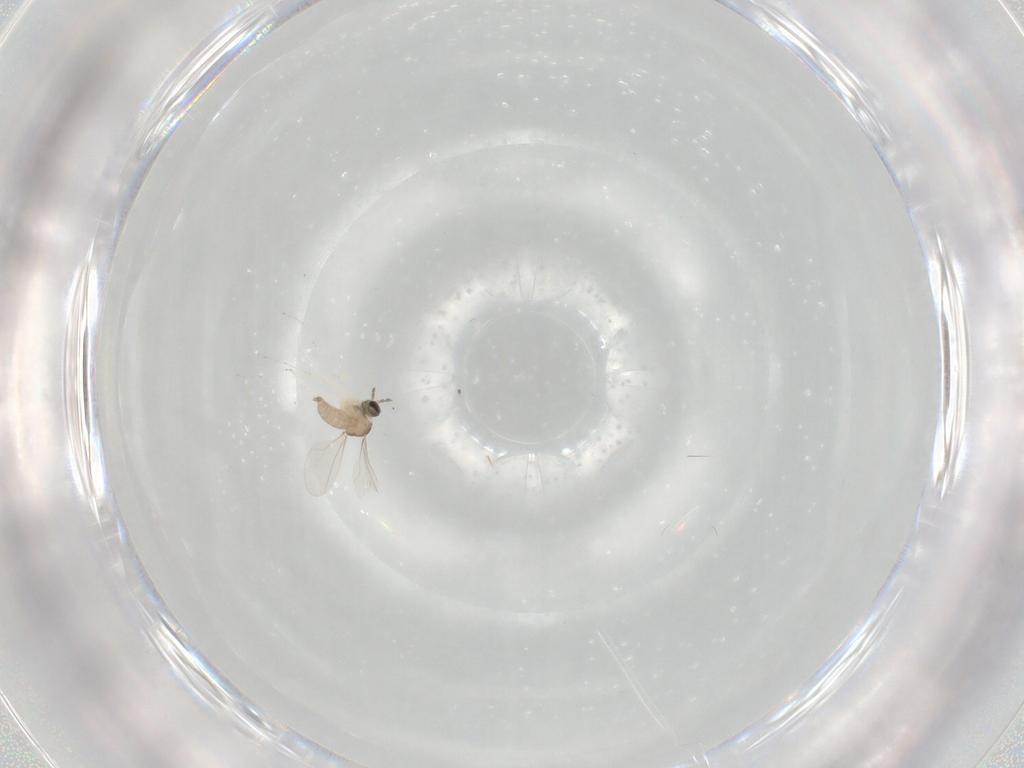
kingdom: Animalia
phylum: Arthropoda
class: Insecta
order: Diptera
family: Cecidomyiidae
